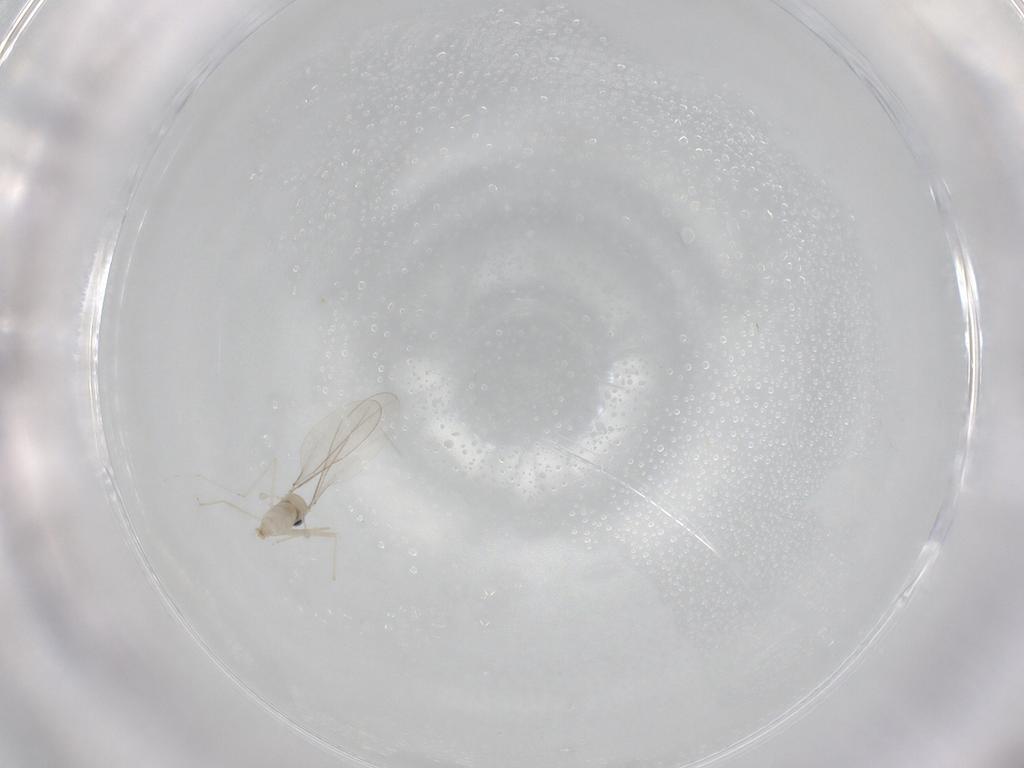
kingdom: Animalia
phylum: Arthropoda
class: Insecta
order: Diptera
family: Cecidomyiidae
